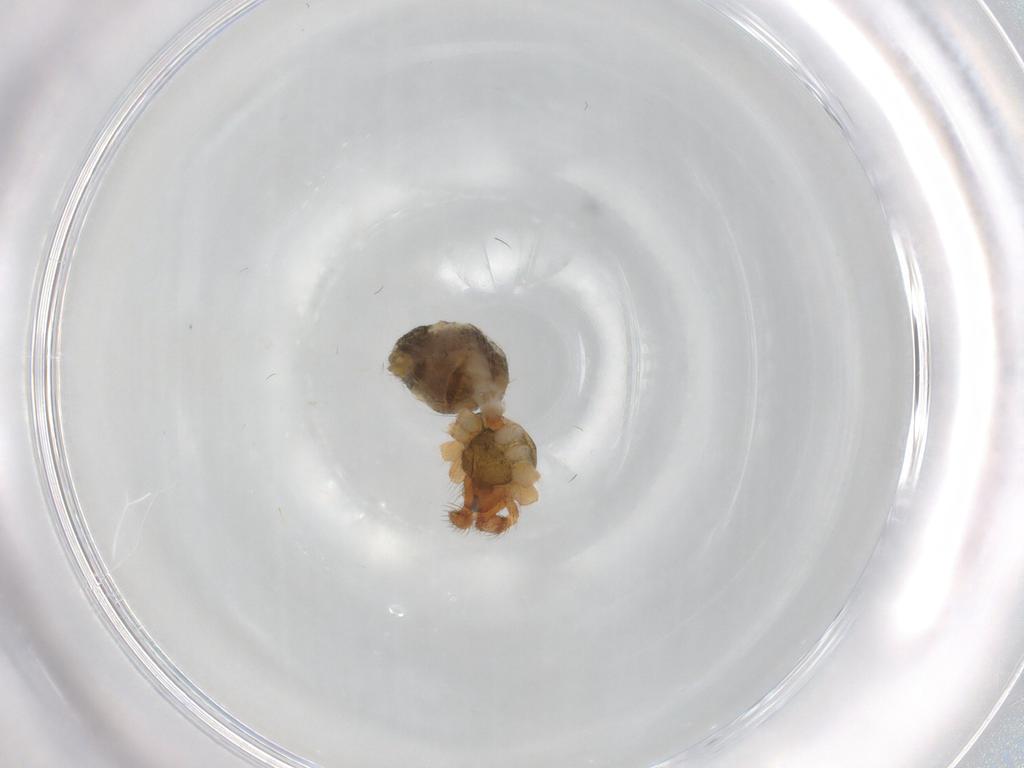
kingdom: Animalia
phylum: Arthropoda
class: Arachnida
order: Araneae
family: Theridiidae
